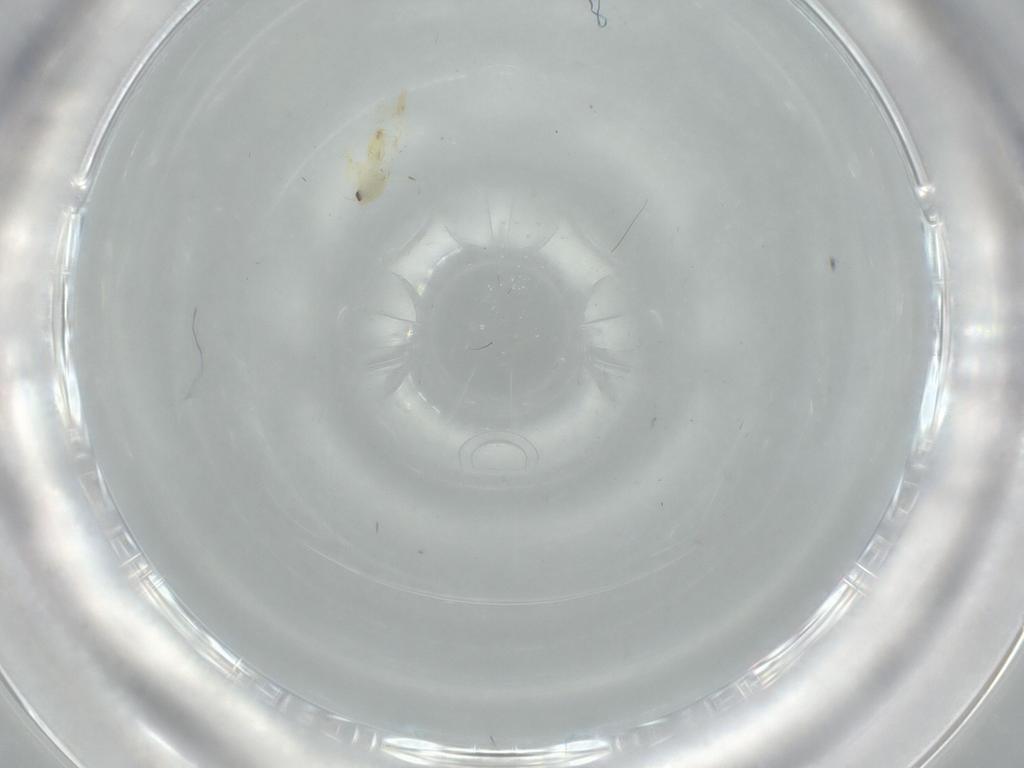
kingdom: Animalia
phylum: Arthropoda
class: Insecta
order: Hemiptera
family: Aleyrodidae
